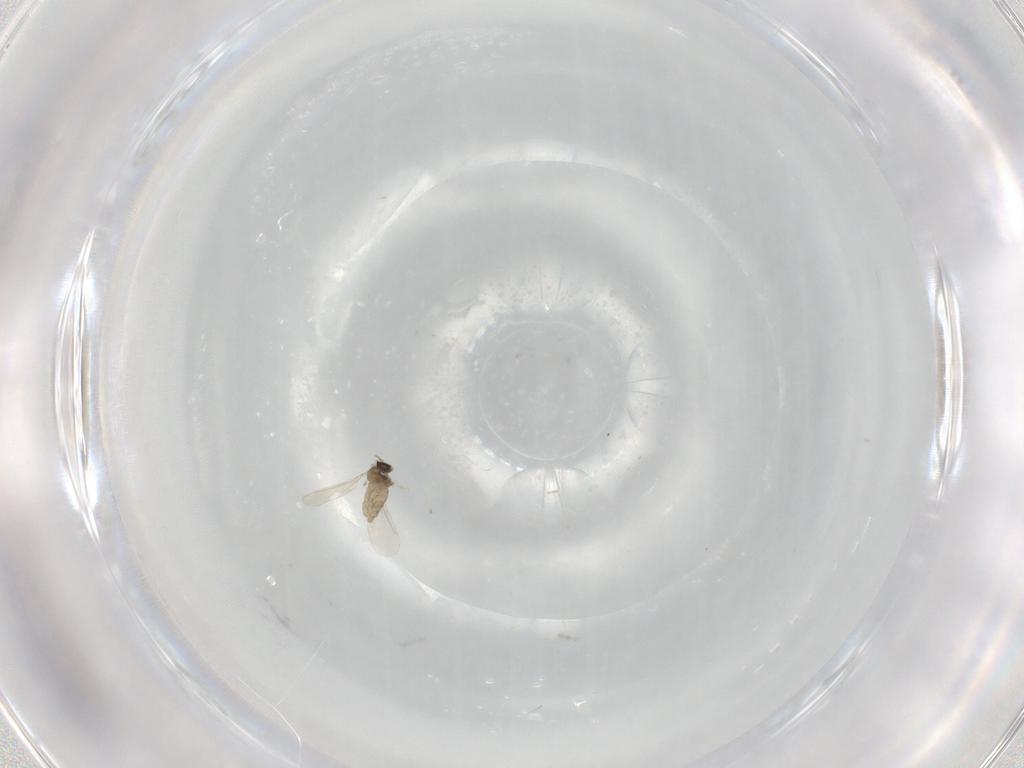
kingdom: Animalia
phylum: Arthropoda
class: Insecta
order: Diptera
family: Cecidomyiidae
